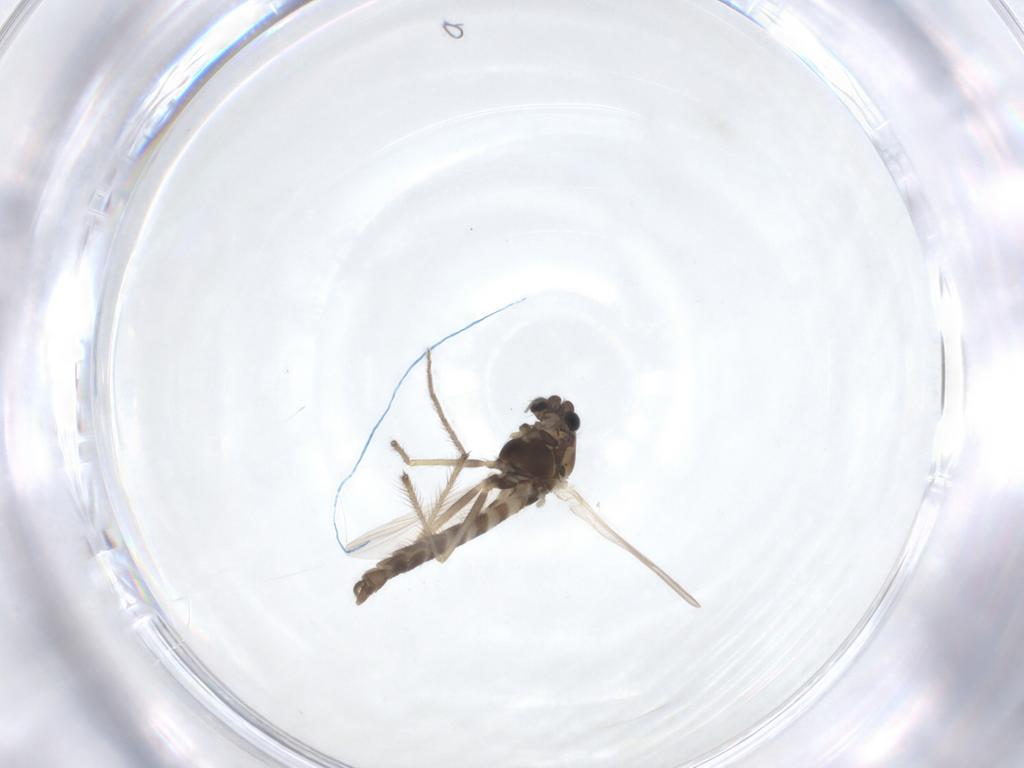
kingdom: Animalia
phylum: Arthropoda
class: Insecta
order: Diptera
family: Chironomidae
